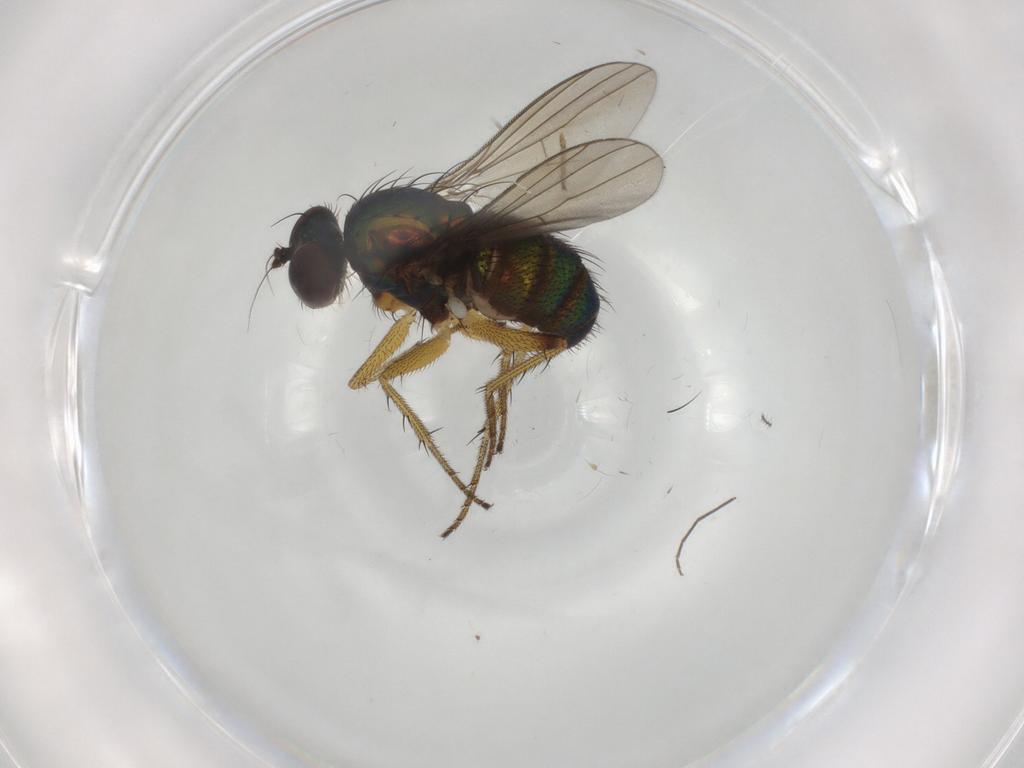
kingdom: Animalia
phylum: Arthropoda
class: Insecta
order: Diptera
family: Dolichopodidae
